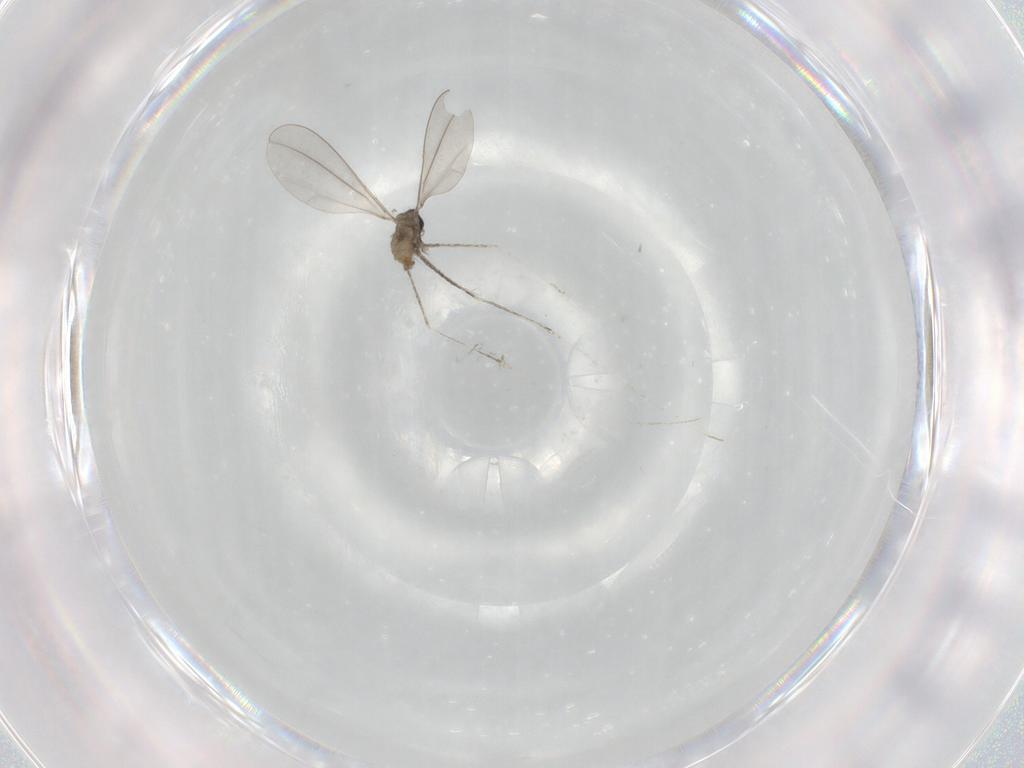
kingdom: Animalia
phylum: Arthropoda
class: Insecta
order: Diptera
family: Cecidomyiidae
